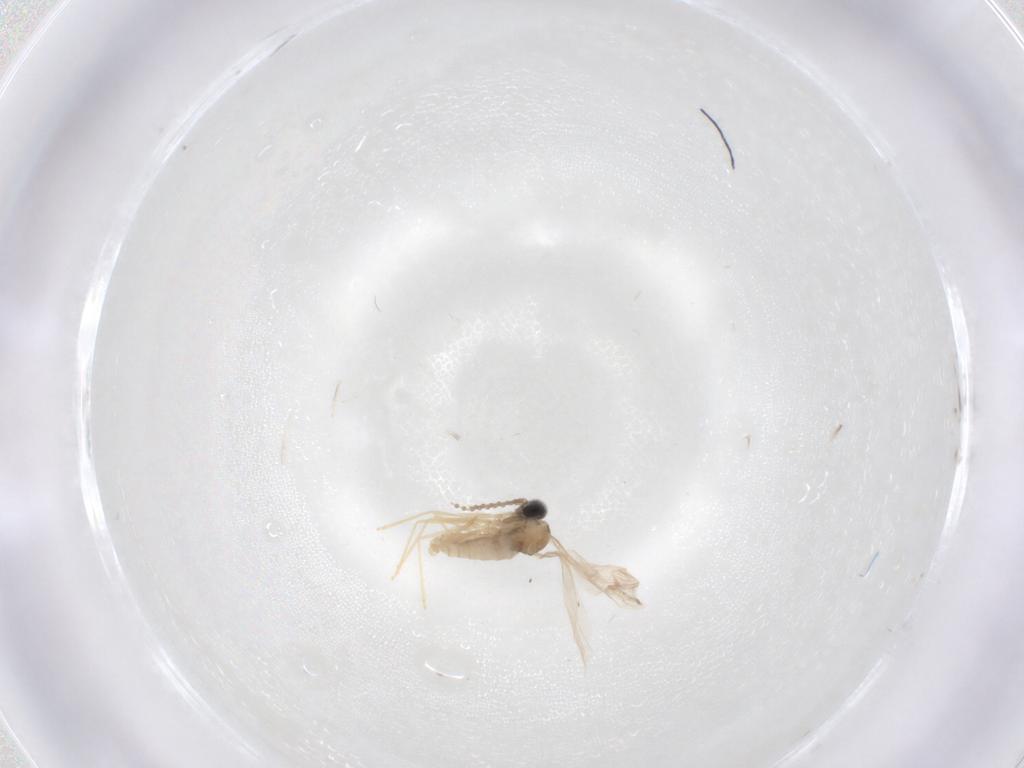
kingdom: Animalia
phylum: Arthropoda
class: Insecta
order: Diptera
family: Cecidomyiidae
